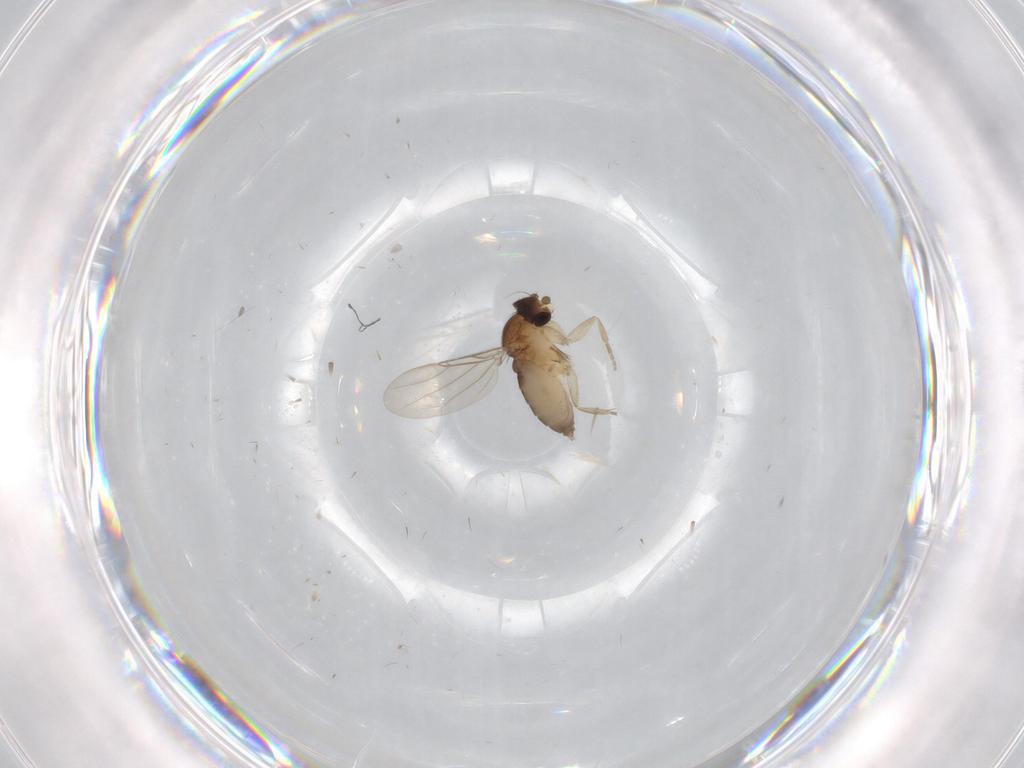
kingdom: Animalia
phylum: Arthropoda
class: Insecta
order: Diptera
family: Phoridae
